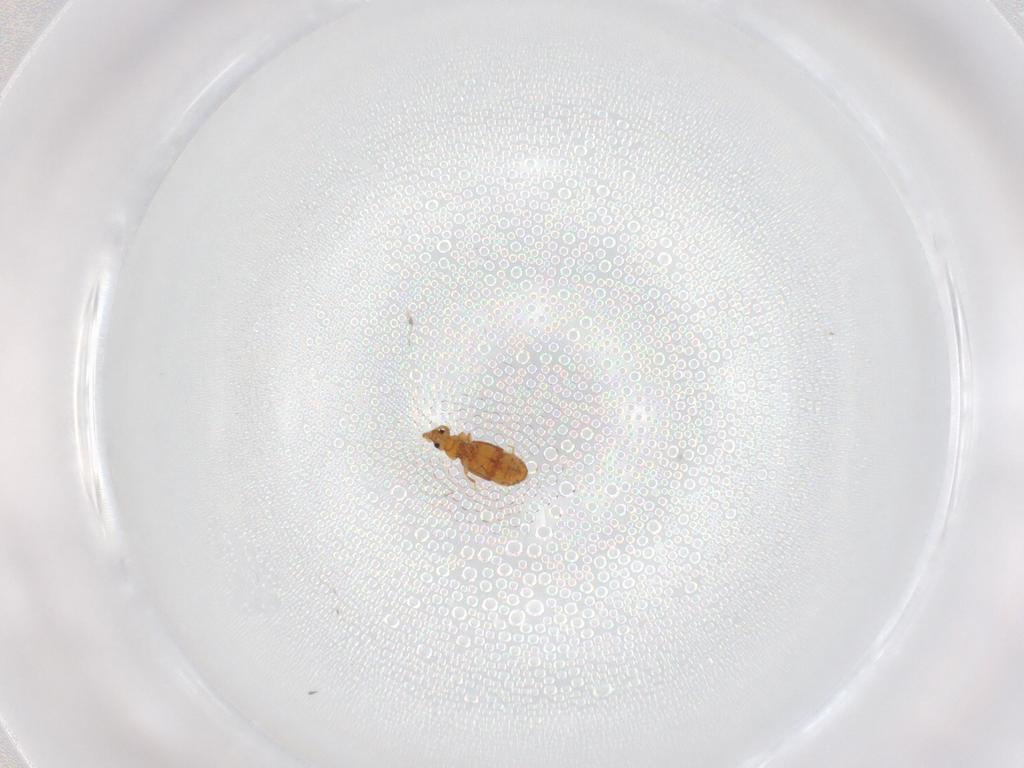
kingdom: Animalia
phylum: Arthropoda
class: Insecta
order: Coleoptera
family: Staphylinidae
